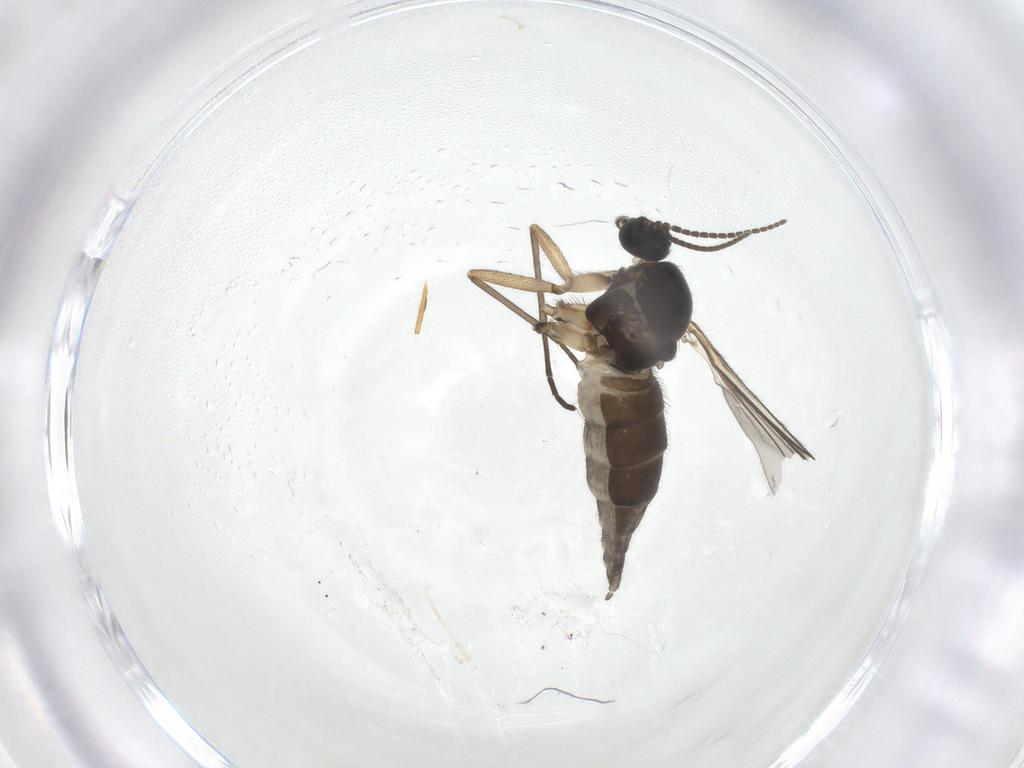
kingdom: Animalia
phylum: Arthropoda
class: Insecta
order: Diptera
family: Sciaridae
